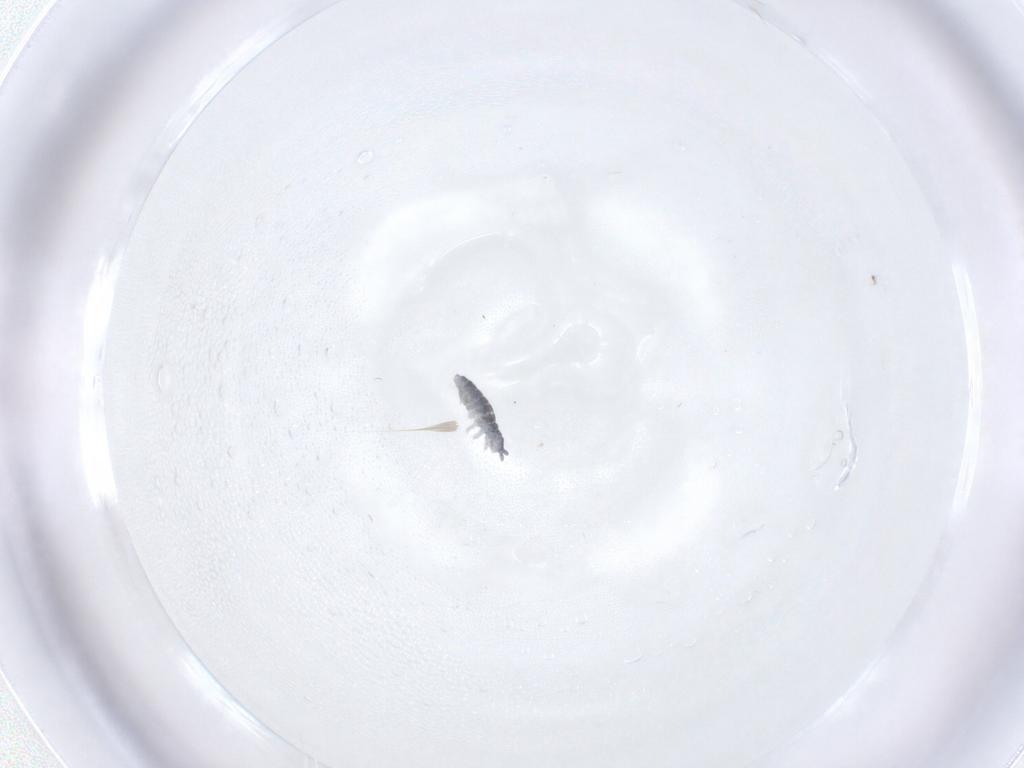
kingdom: Animalia
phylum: Arthropoda
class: Collembola
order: Poduromorpha
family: Hypogastruridae
